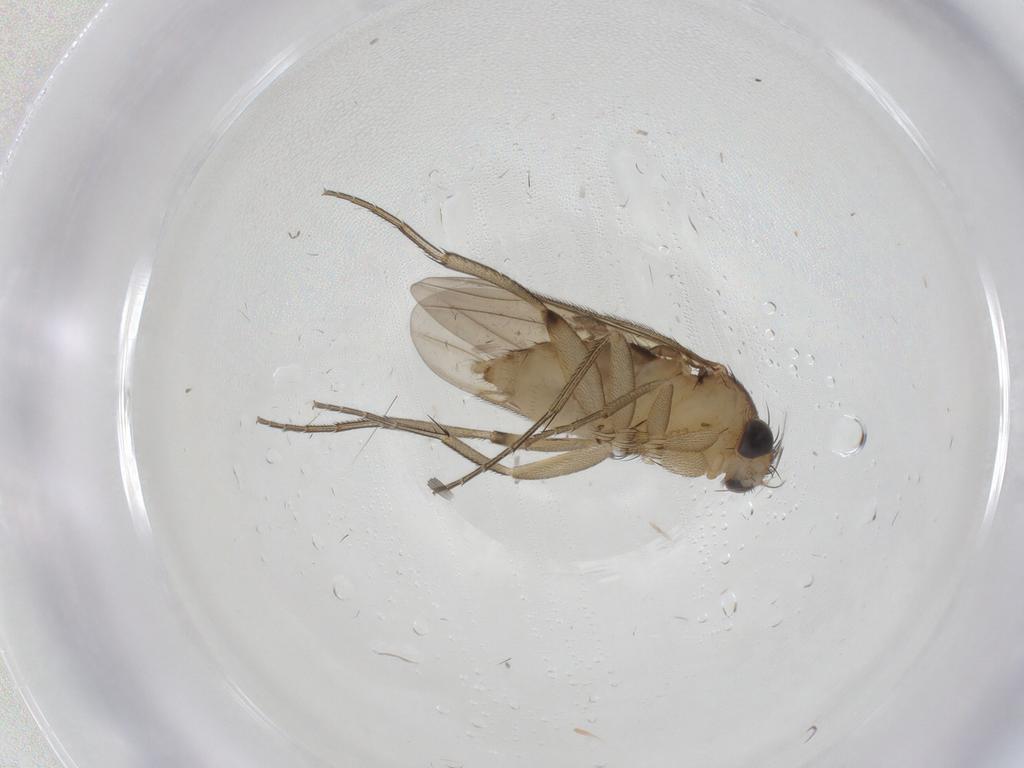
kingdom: Animalia
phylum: Arthropoda
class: Insecta
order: Diptera
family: Phoridae
